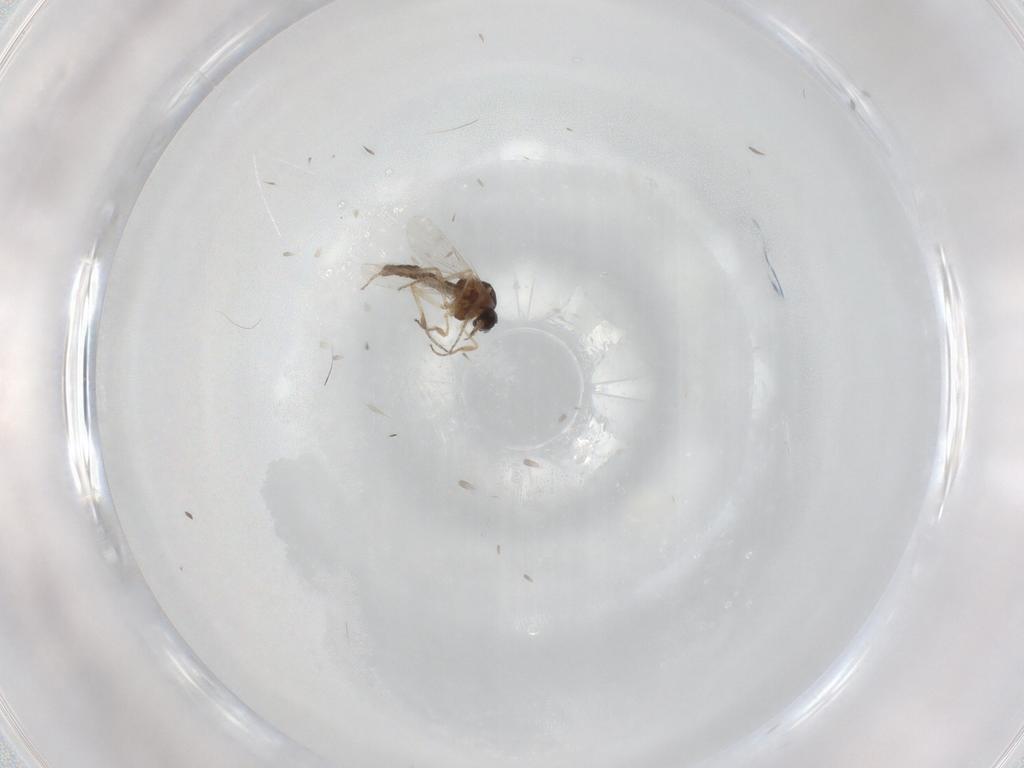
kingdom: Animalia
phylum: Arthropoda
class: Insecta
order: Diptera
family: Ceratopogonidae
